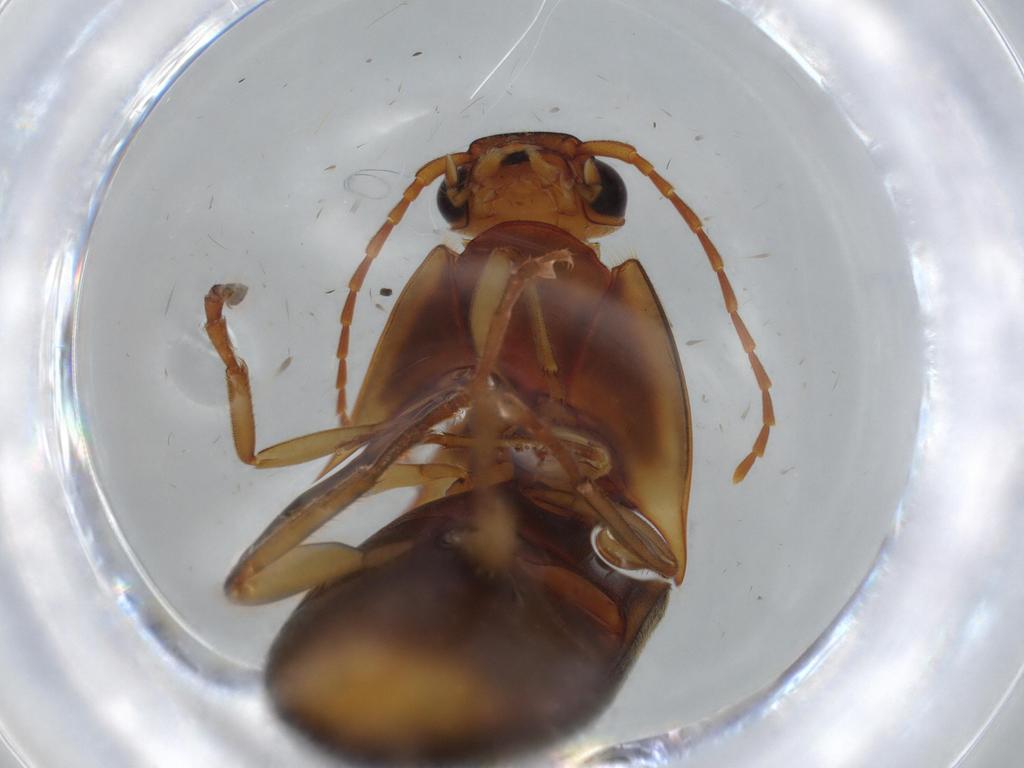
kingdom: Animalia
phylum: Arthropoda
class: Insecta
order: Coleoptera
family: Elateridae
